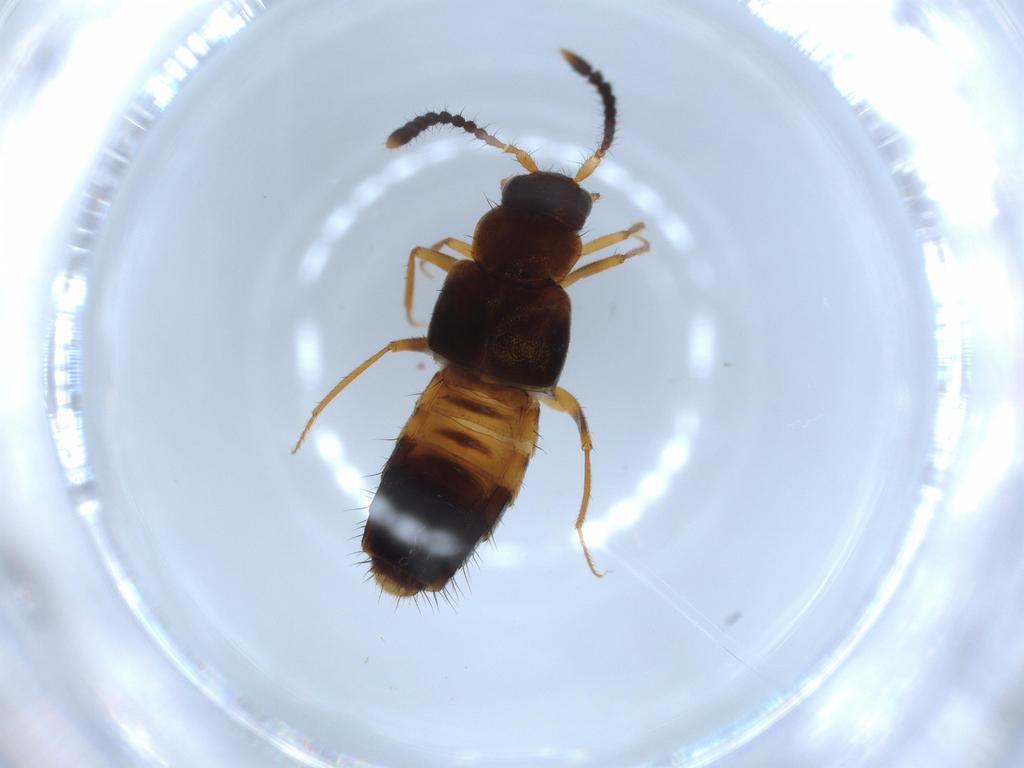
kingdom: Animalia
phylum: Arthropoda
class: Insecta
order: Coleoptera
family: Staphylinidae
